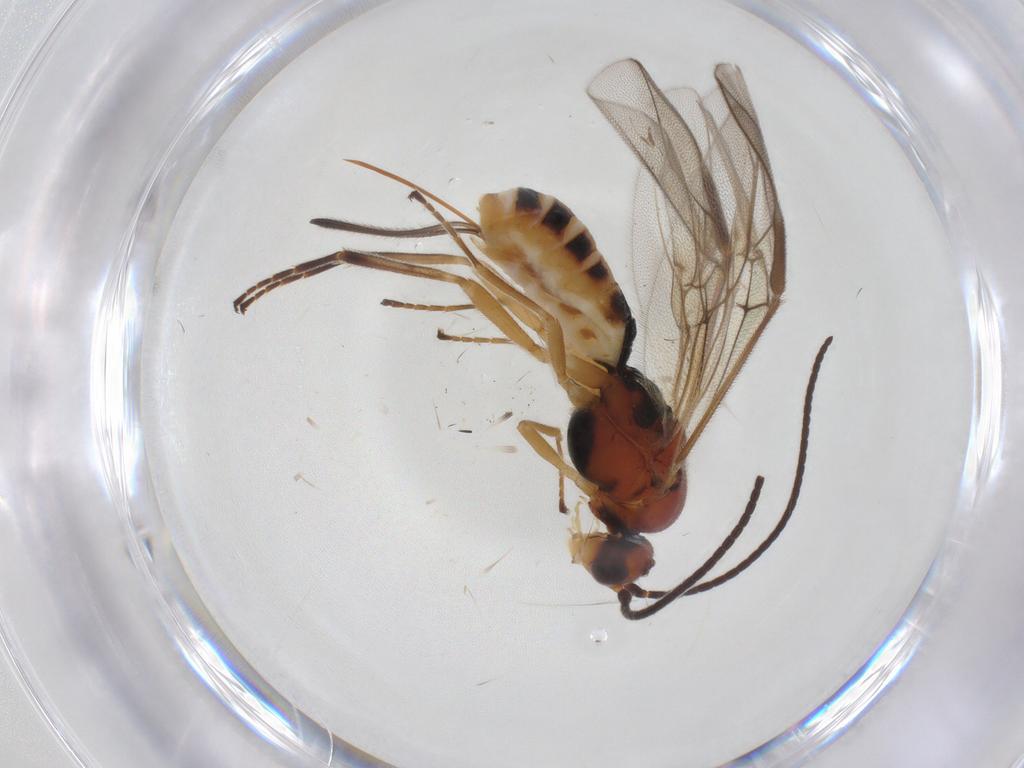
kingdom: Animalia
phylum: Arthropoda
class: Insecta
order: Hymenoptera
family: Braconidae
